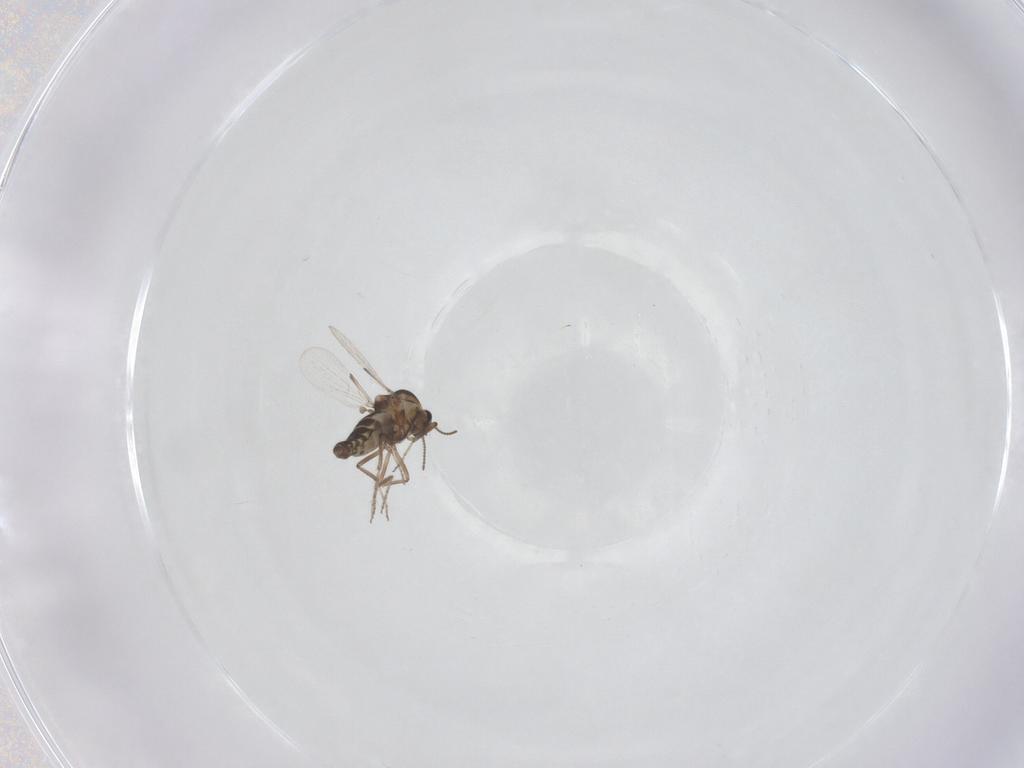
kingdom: Animalia
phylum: Arthropoda
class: Insecta
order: Diptera
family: Ceratopogonidae
